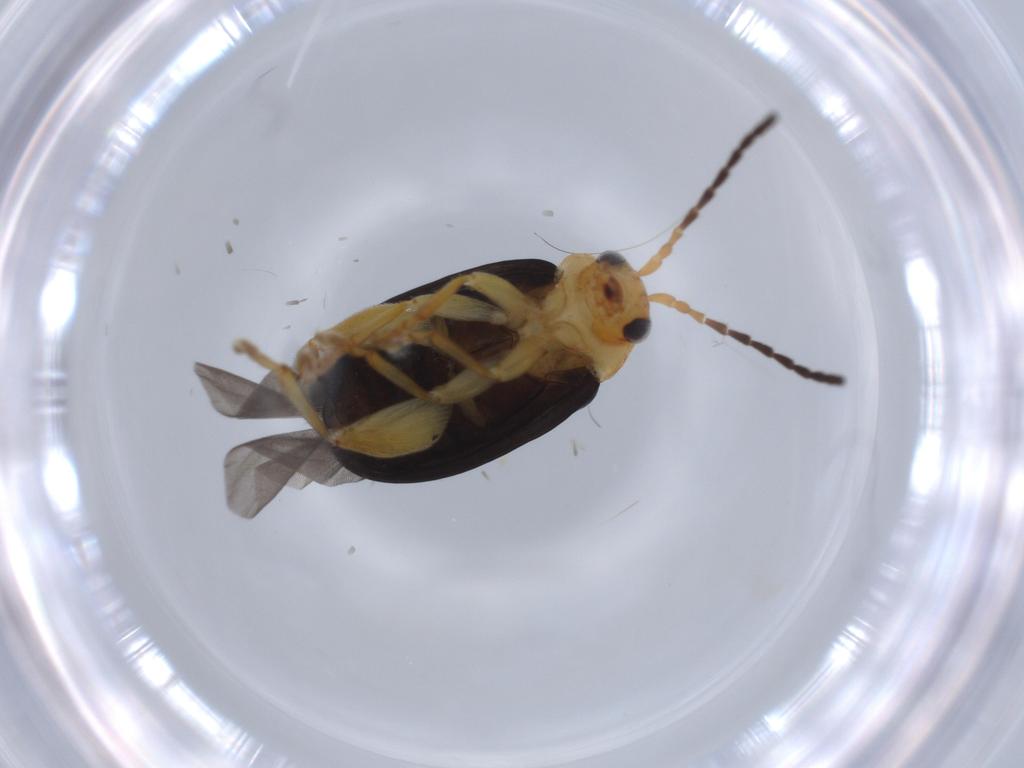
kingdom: Animalia
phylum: Arthropoda
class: Insecta
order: Coleoptera
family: Chrysomelidae
